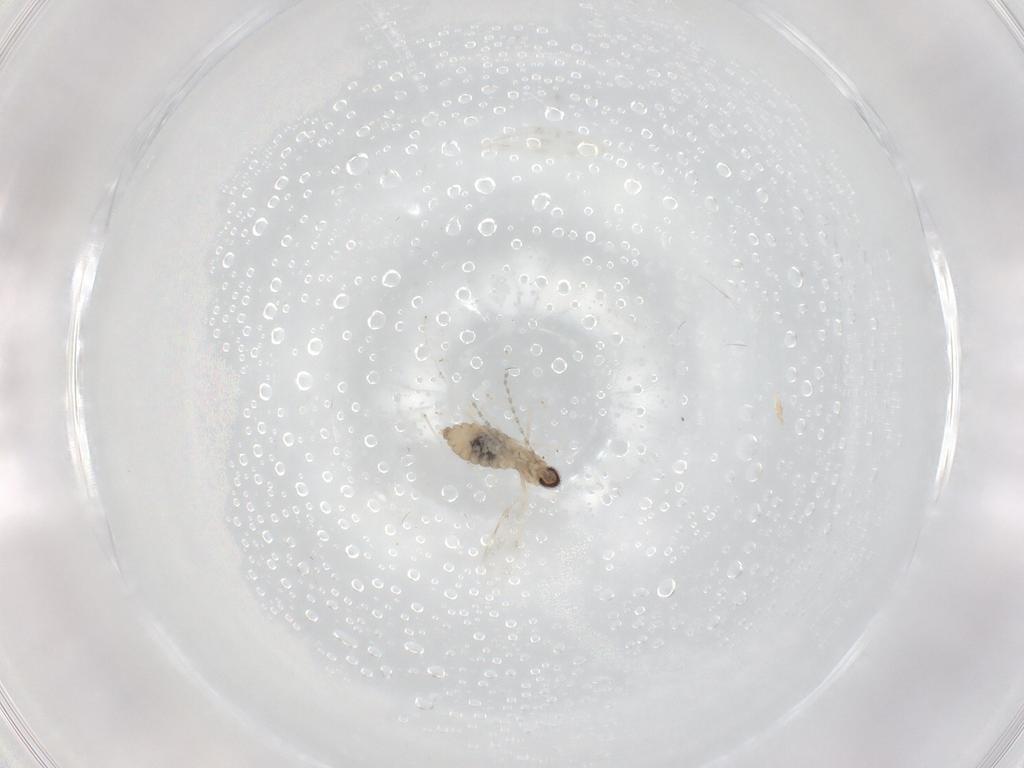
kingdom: Animalia
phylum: Arthropoda
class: Insecta
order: Diptera
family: Cecidomyiidae
